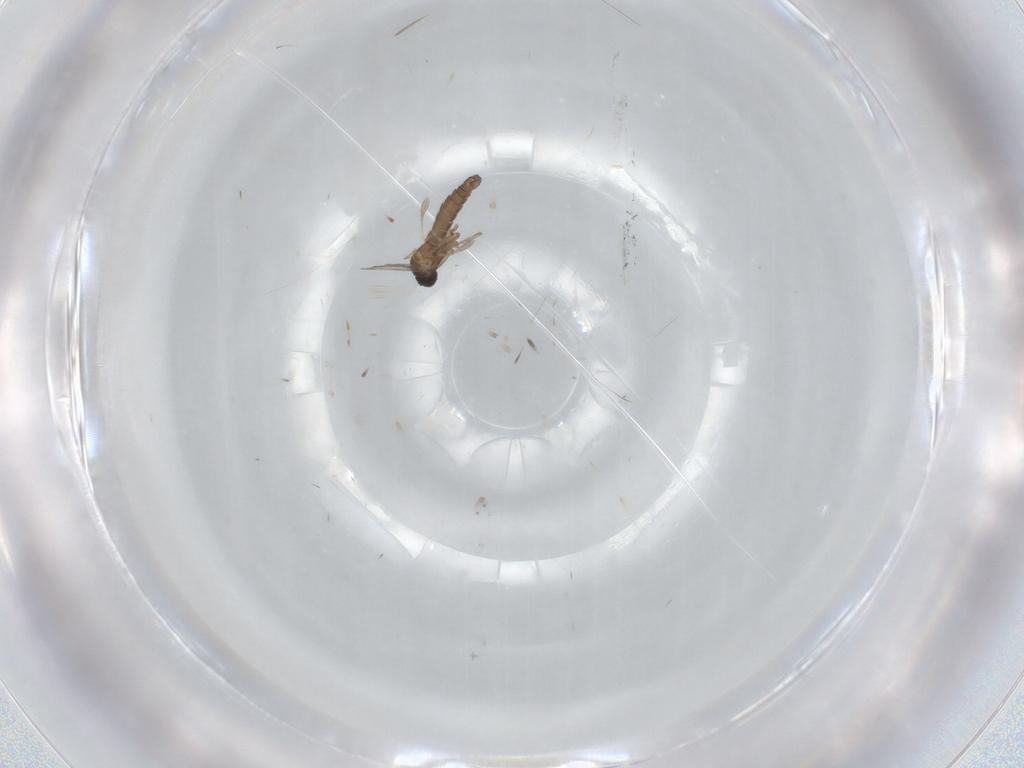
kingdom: Animalia
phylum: Arthropoda
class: Insecta
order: Diptera
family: Sciaridae
